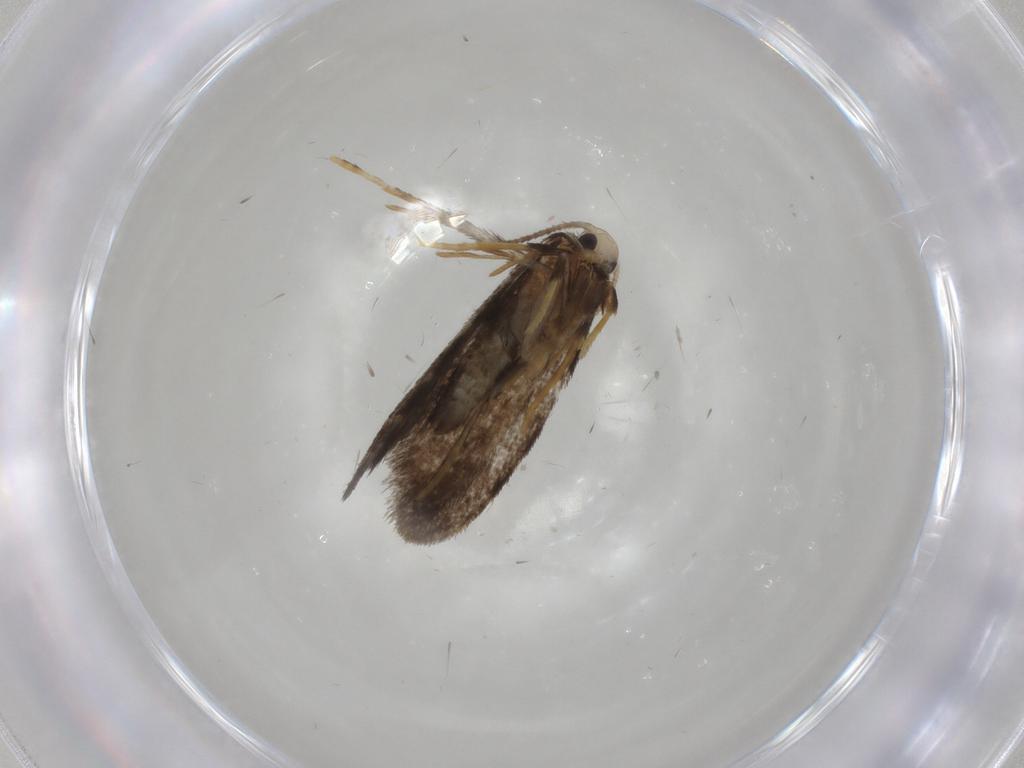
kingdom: Animalia
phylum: Arthropoda
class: Insecta
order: Lepidoptera
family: Psychidae
